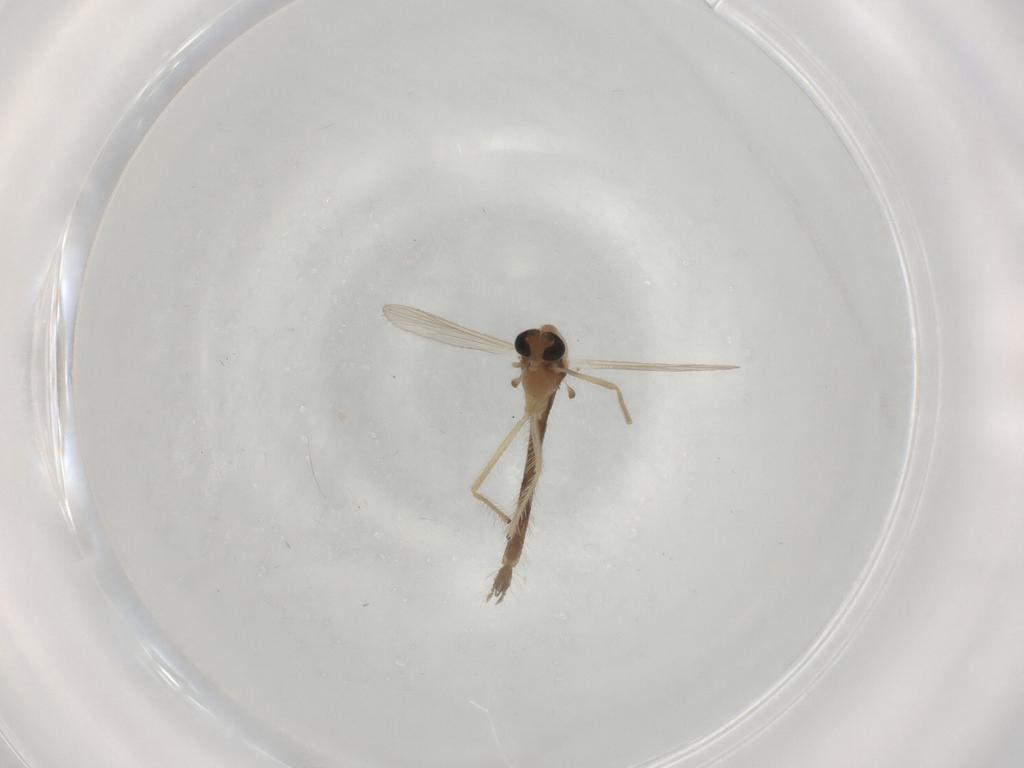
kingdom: Animalia
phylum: Arthropoda
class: Insecta
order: Diptera
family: Chironomidae
